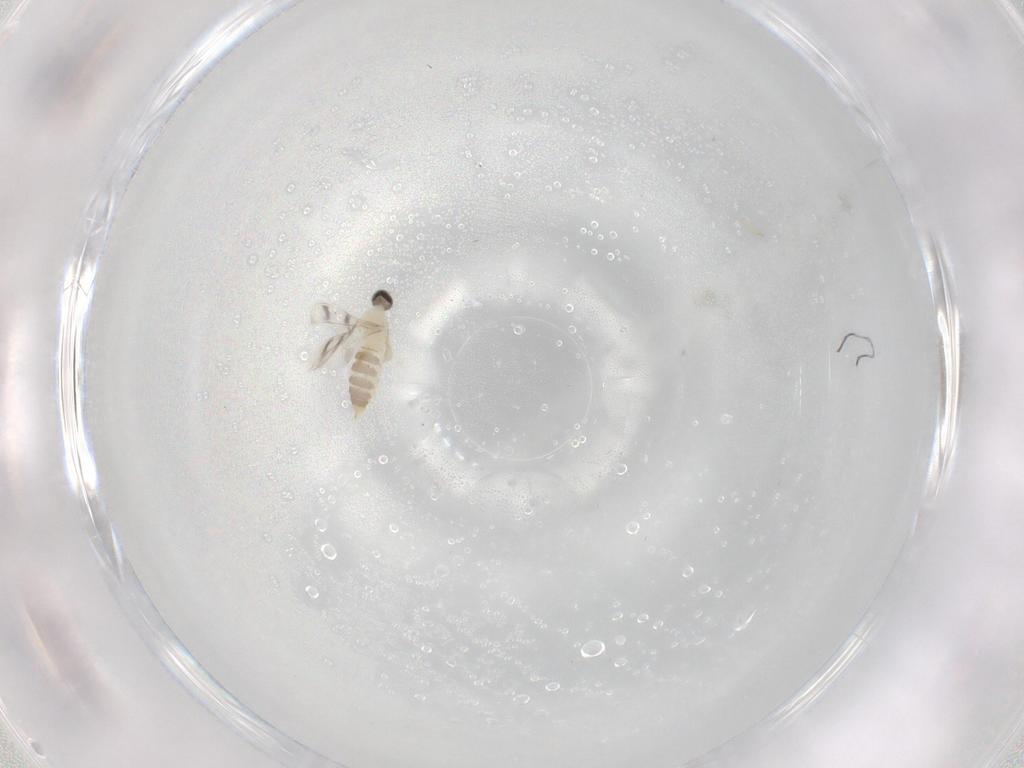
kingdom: Animalia
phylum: Arthropoda
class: Insecta
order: Diptera
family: Cecidomyiidae
